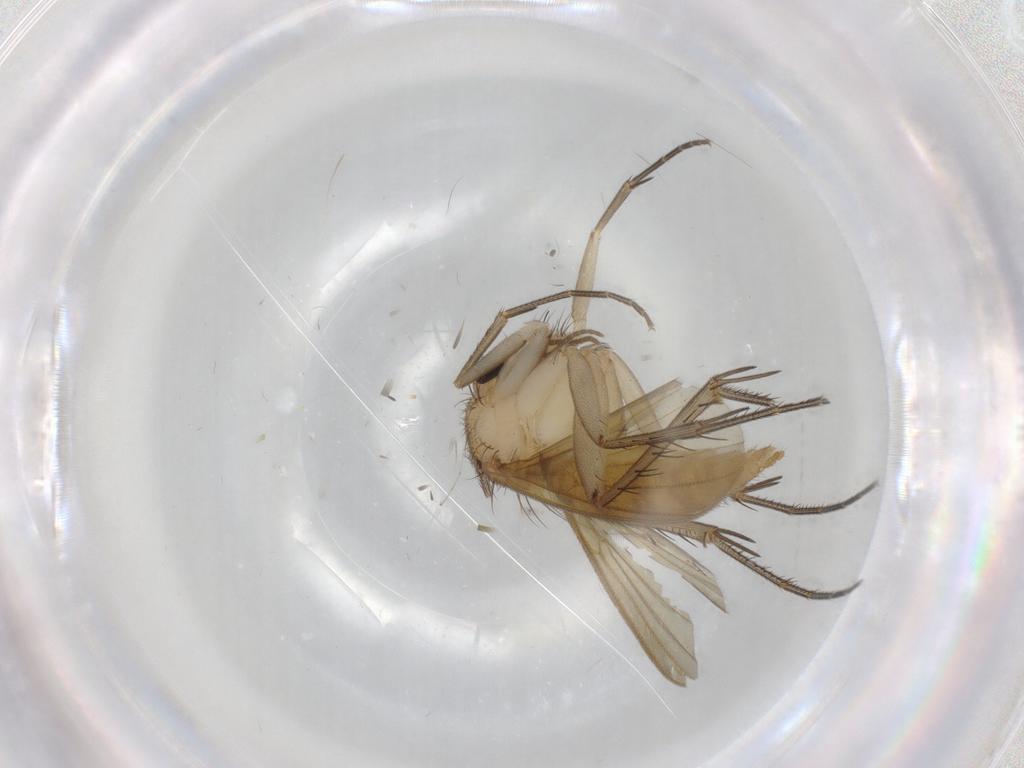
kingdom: Animalia
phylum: Arthropoda
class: Insecta
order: Diptera
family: Cecidomyiidae
